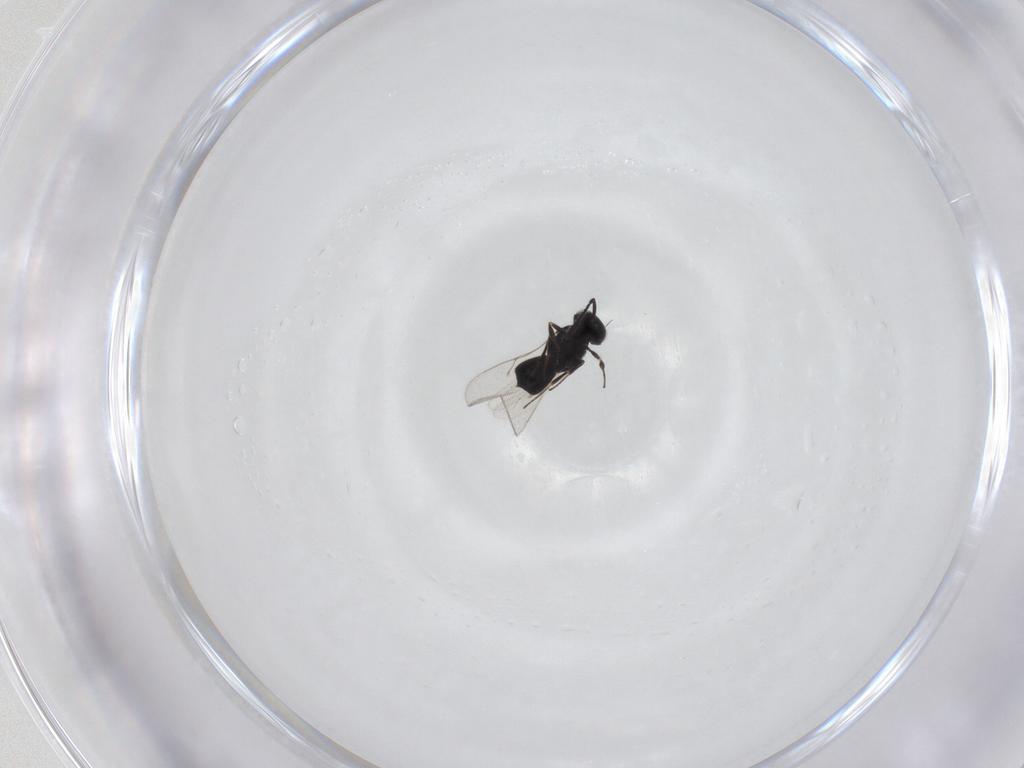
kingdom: Animalia
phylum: Arthropoda
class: Insecta
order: Hymenoptera
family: Scelionidae
